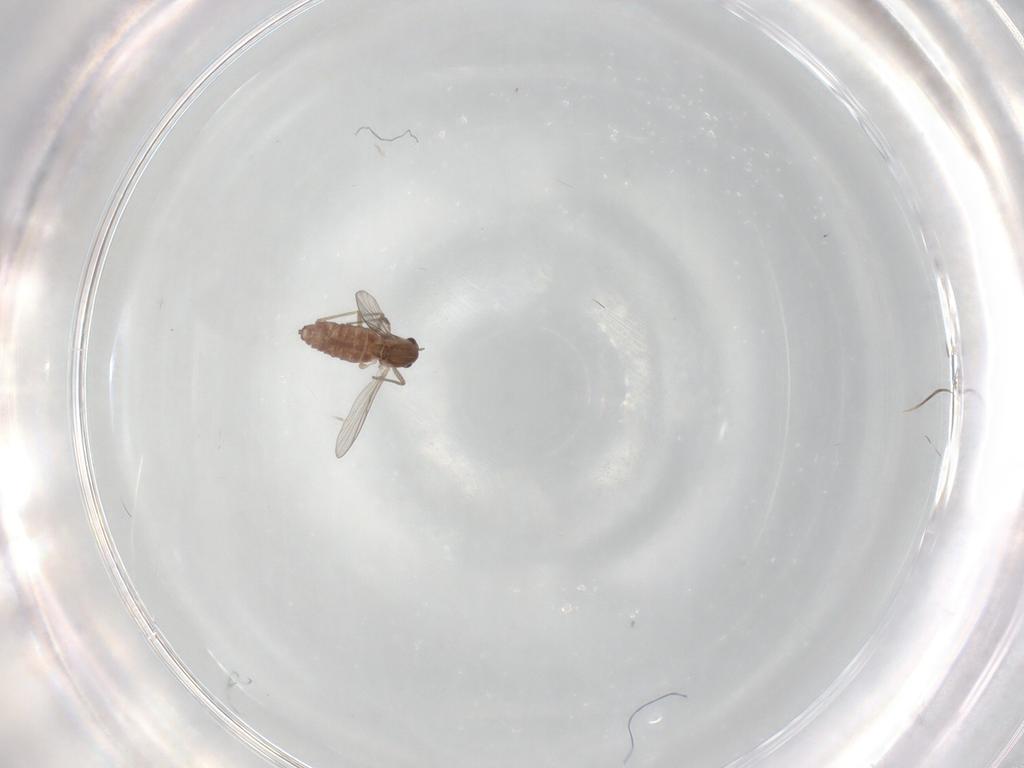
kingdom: Animalia
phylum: Arthropoda
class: Insecta
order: Diptera
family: Chironomidae
